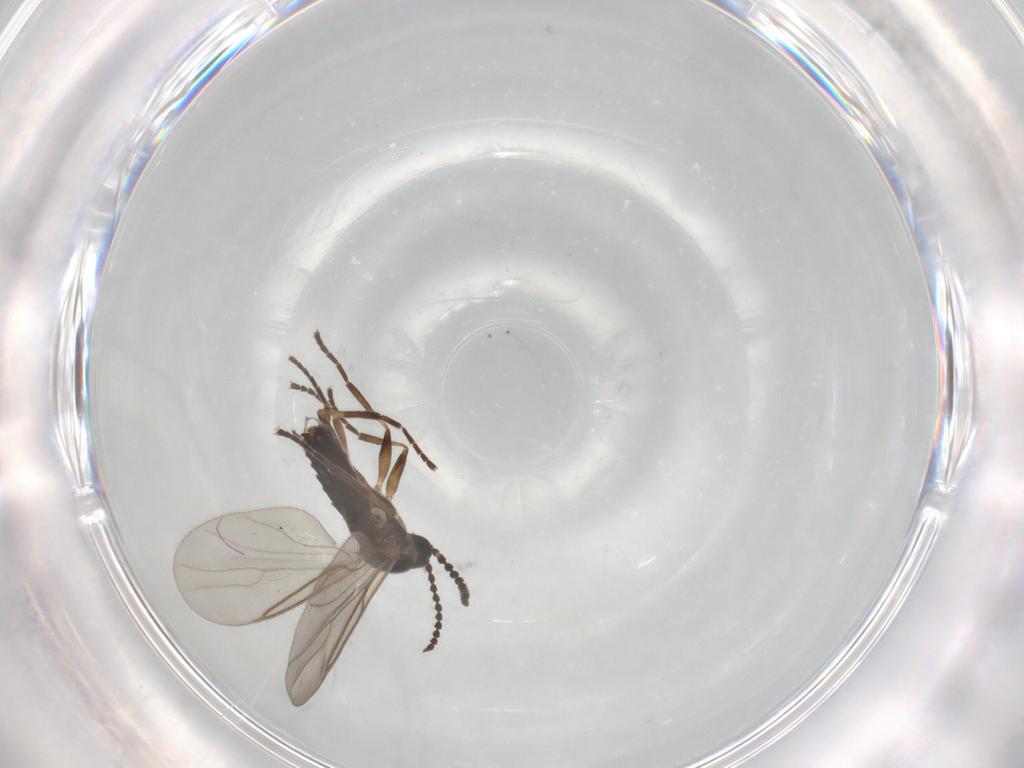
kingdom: Animalia
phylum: Arthropoda
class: Insecta
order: Diptera
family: Scatopsidae
